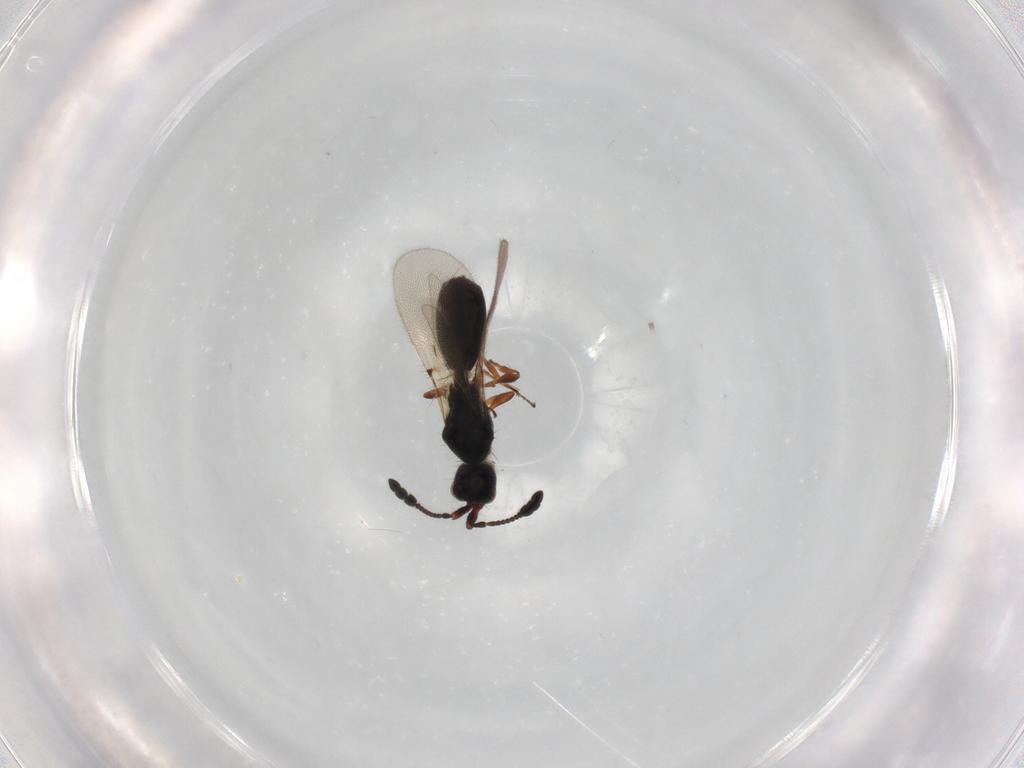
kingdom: Animalia
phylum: Arthropoda
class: Insecta
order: Hymenoptera
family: Diapriidae
